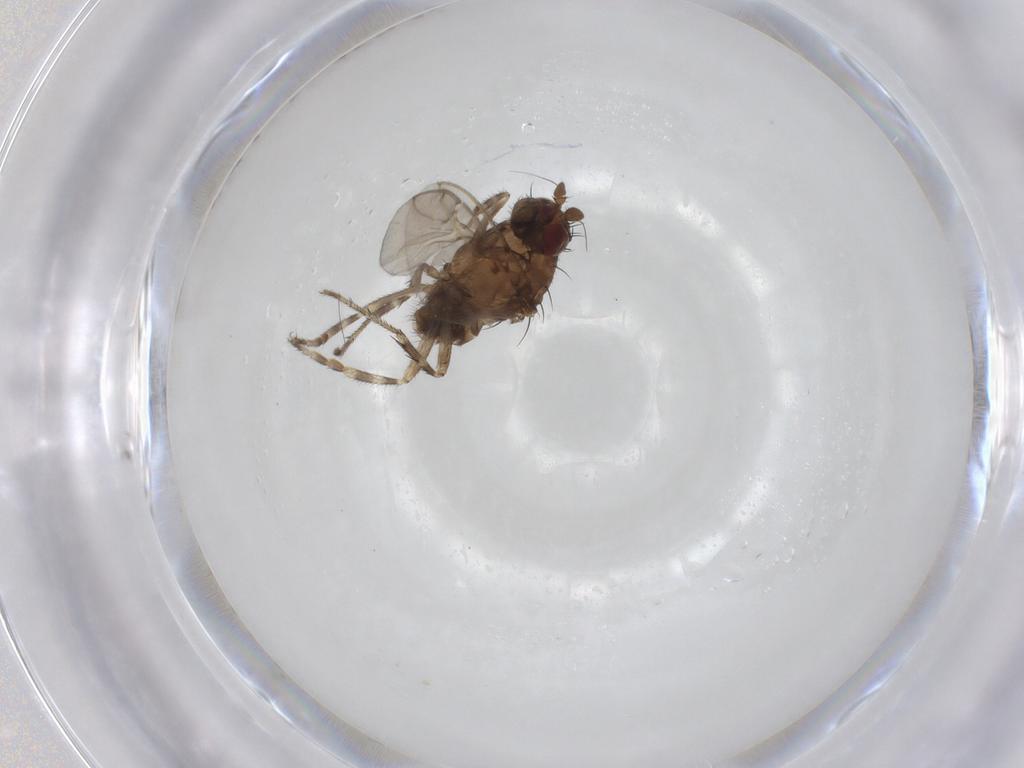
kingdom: Animalia
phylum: Arthropoda
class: Insecta
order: Diptera
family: Sphaeroceridae
